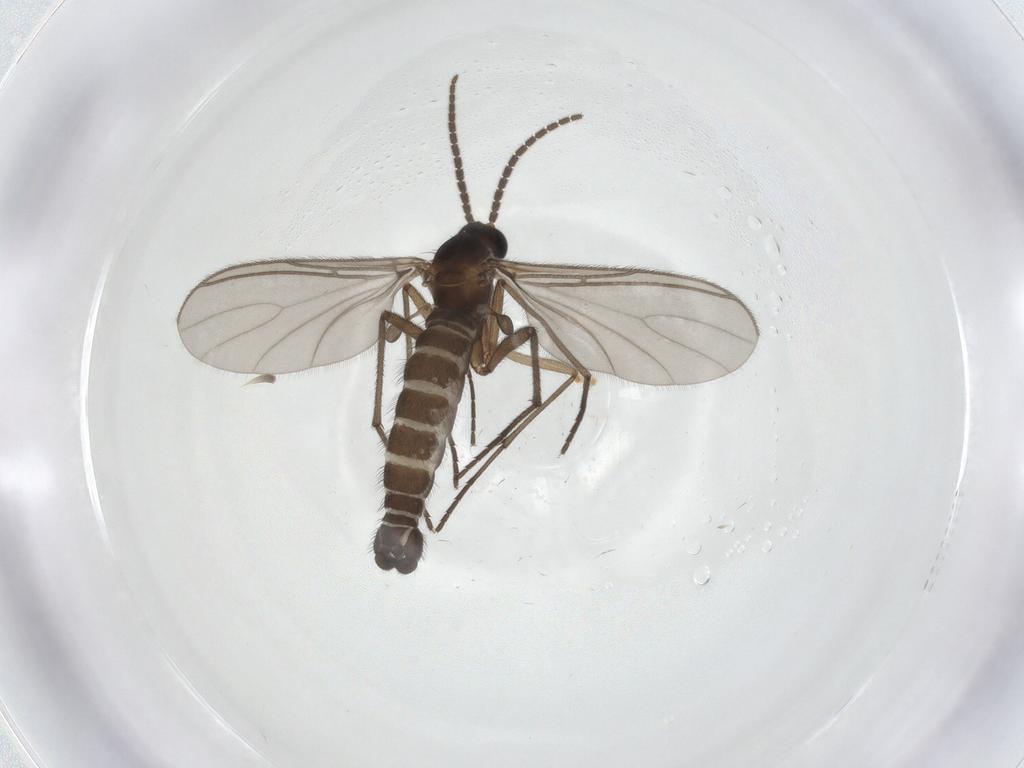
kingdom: Animalia
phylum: Arthropoda
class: Insecta
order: Diptera
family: Sciaridae
